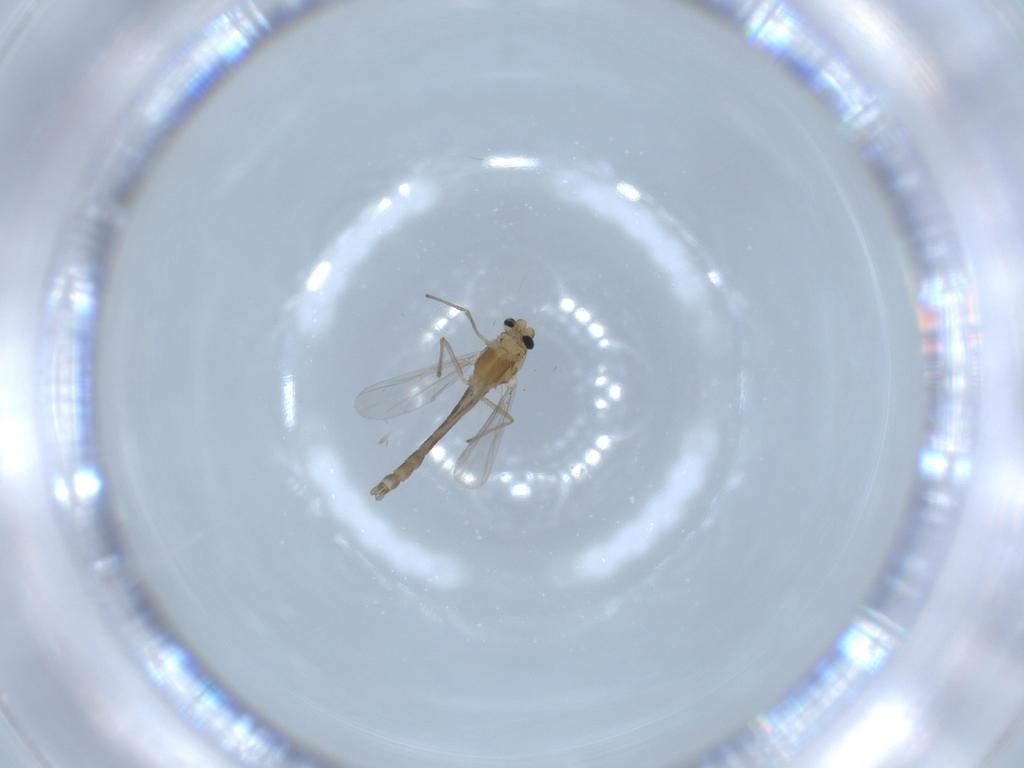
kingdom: Animalia
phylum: Arthropoda
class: Insecta
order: Diptera
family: Chironomidae
